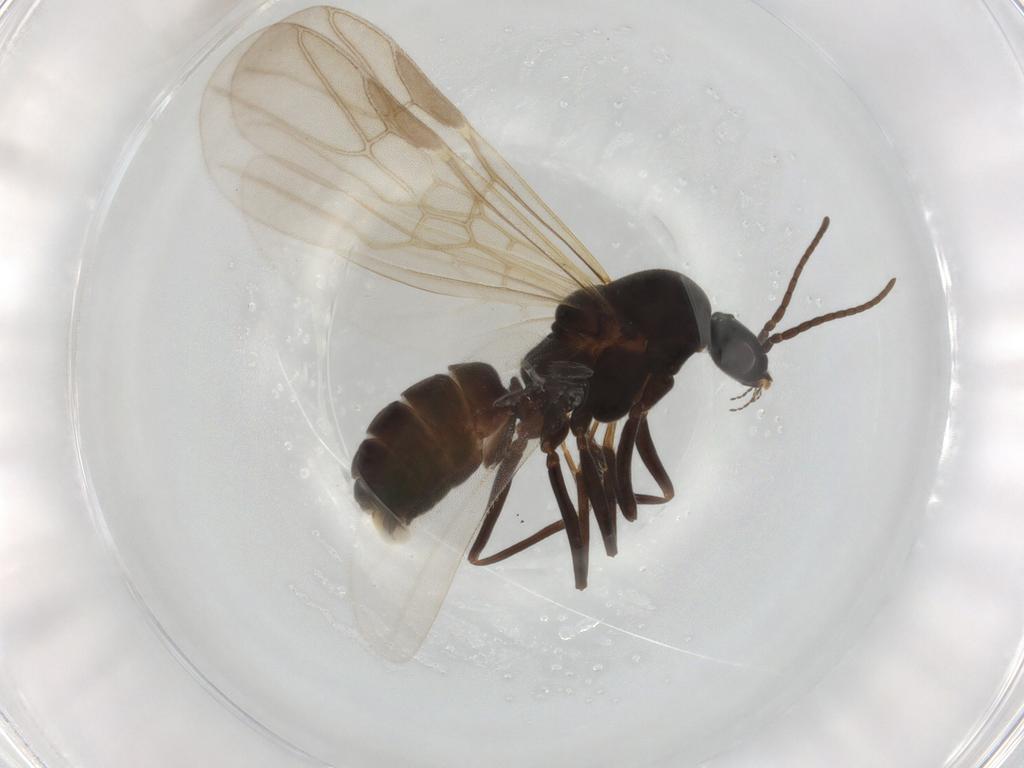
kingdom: Animalia
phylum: Arthropoda
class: Insecta
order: Hymenoptera
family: Formicidae
